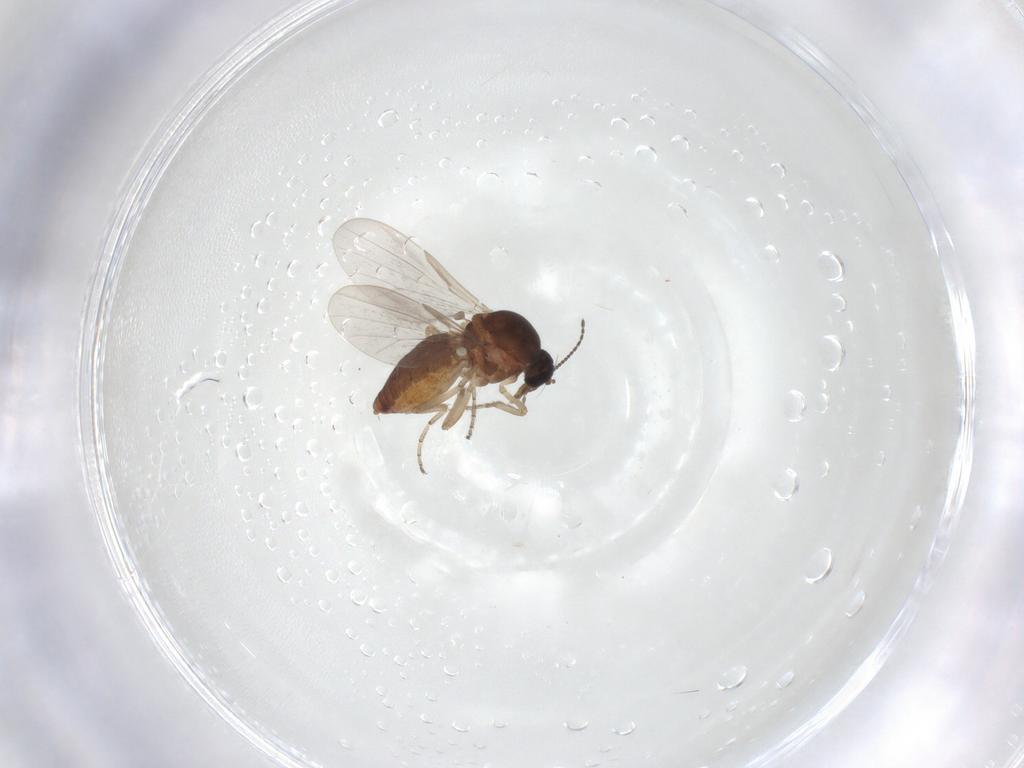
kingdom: Animalia
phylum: Arthropoda
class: Insecta
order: Diptera
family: Ceratopogonidae
